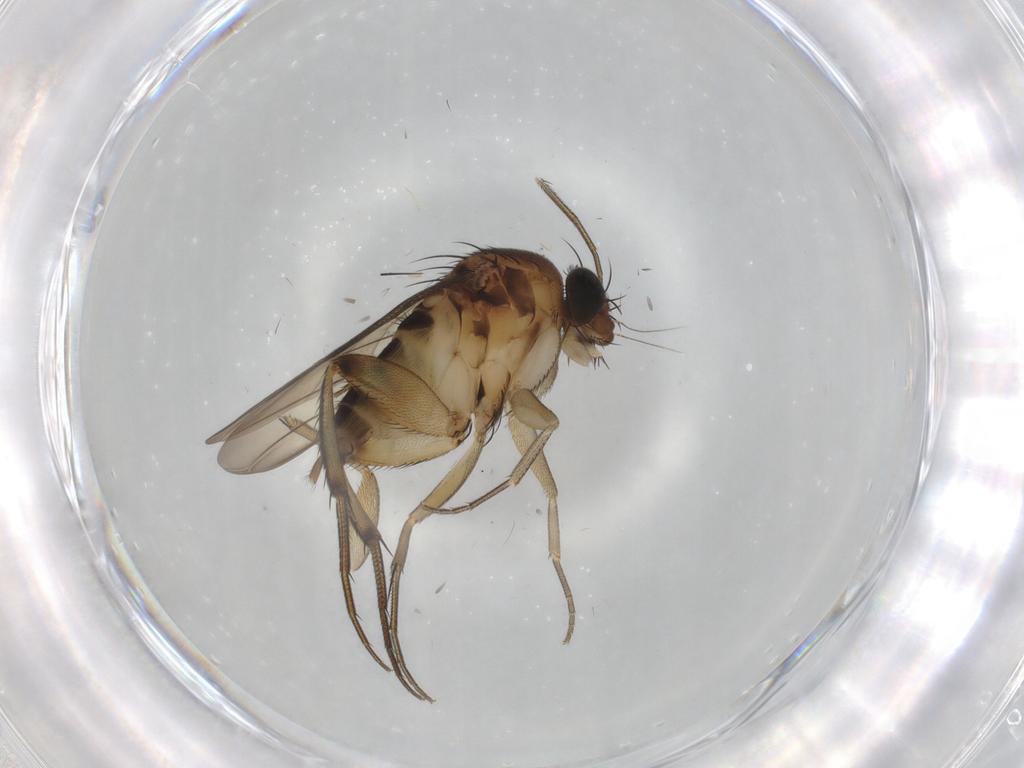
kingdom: Animalia
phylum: Arthropoda
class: Insecta
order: Diptera
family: Phoridae
